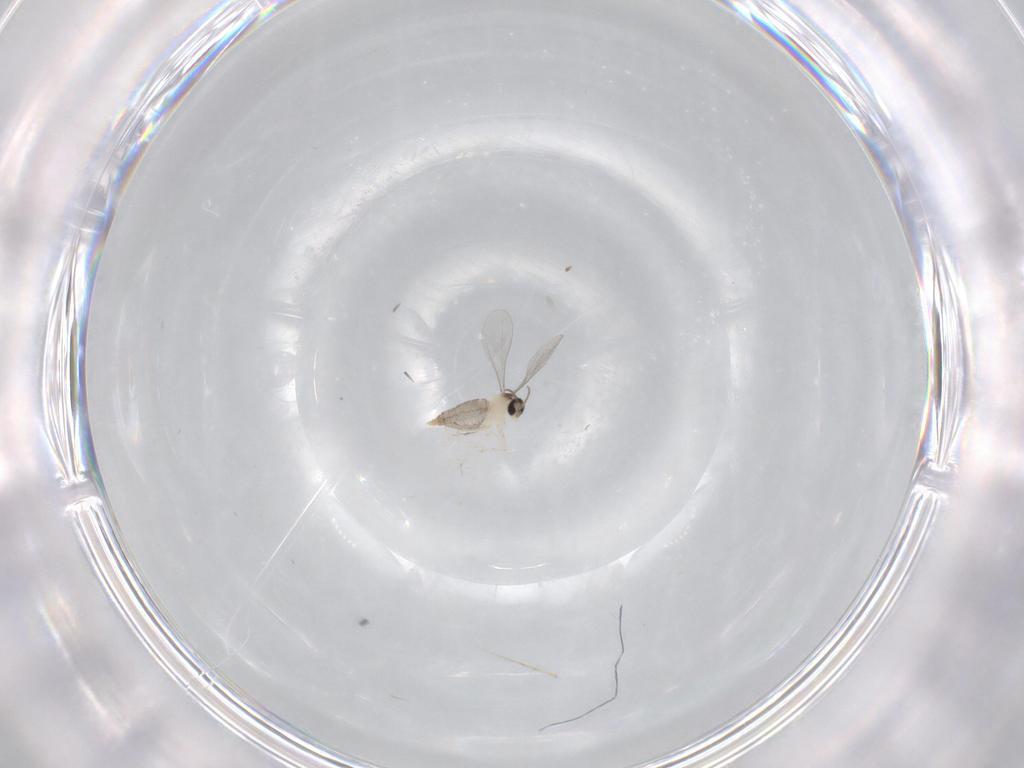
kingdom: Animalia
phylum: Arthropoda
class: Insecta
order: Diptera
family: Cecidomyiidae
